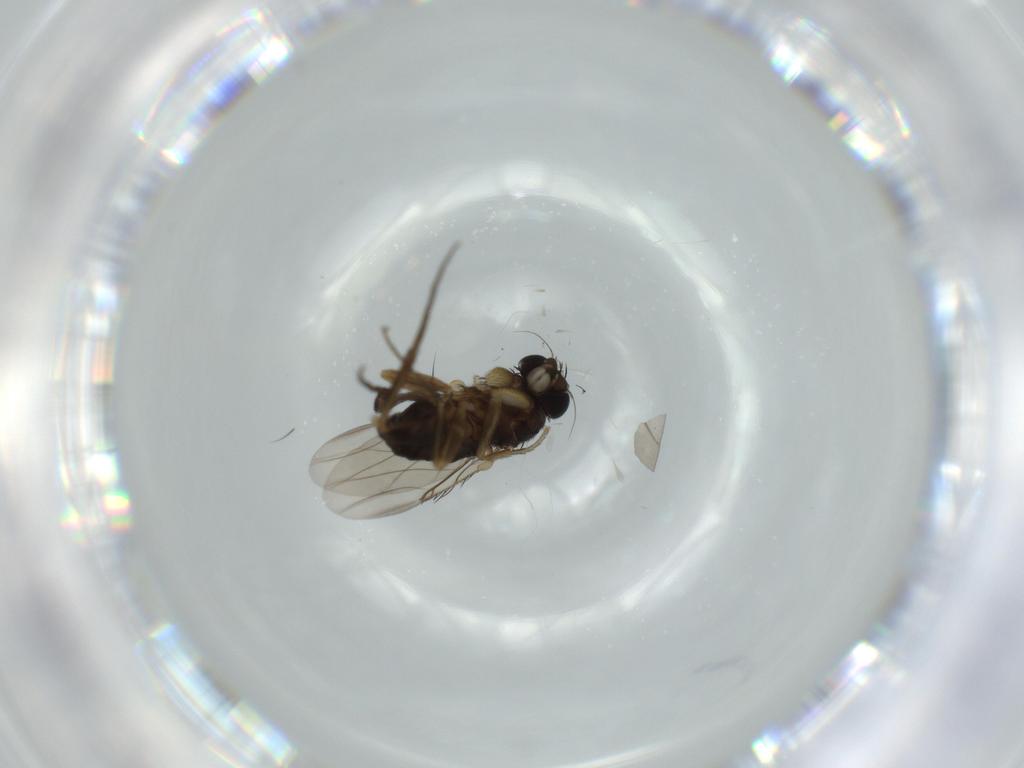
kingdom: Animalia
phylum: Arthropoda
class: Insecta
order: Diptera
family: Phoridae
